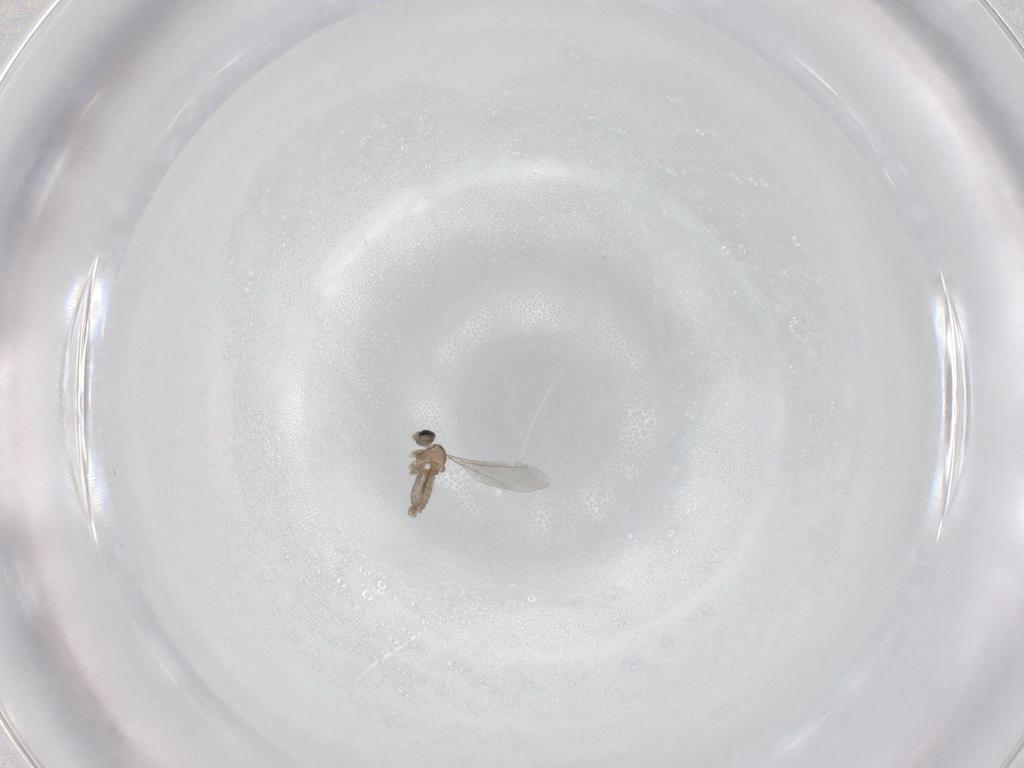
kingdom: Animalia
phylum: Arthropoda
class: Insecta
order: Diptera
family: Cecidomyiidae
